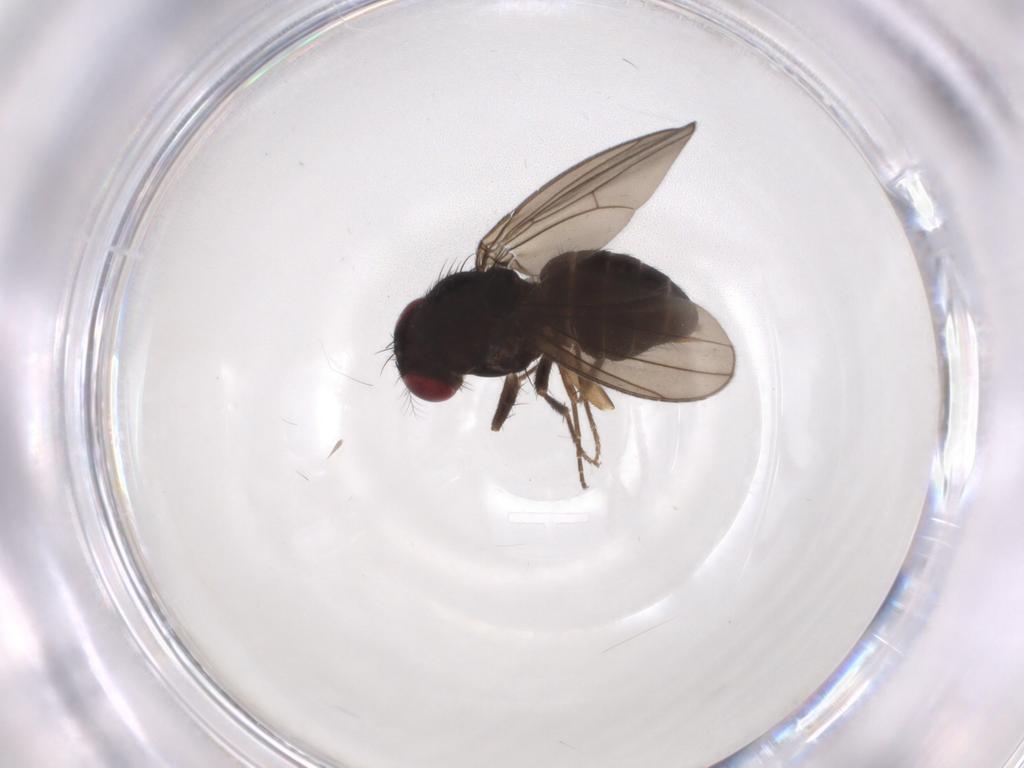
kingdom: Animalia
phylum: Arthropoda
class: Insecta
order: Diptera
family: Drosophilidae
